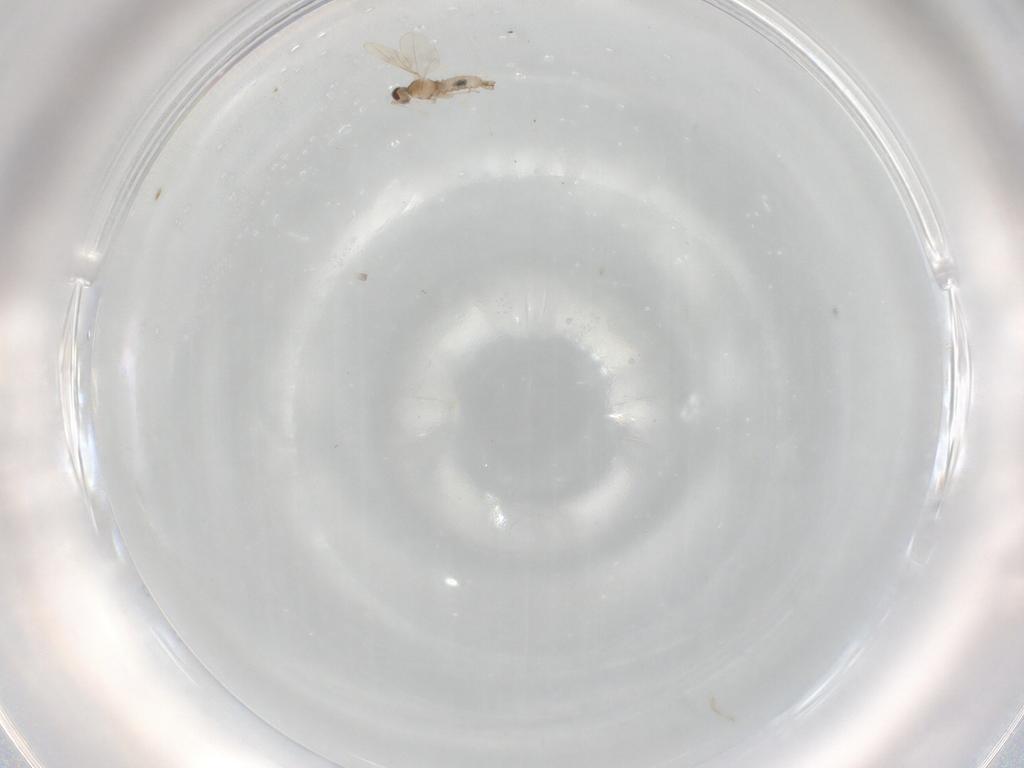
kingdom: Animalia
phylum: Arthropoda
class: Insecta
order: Diptera
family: Cecidomyiidae
